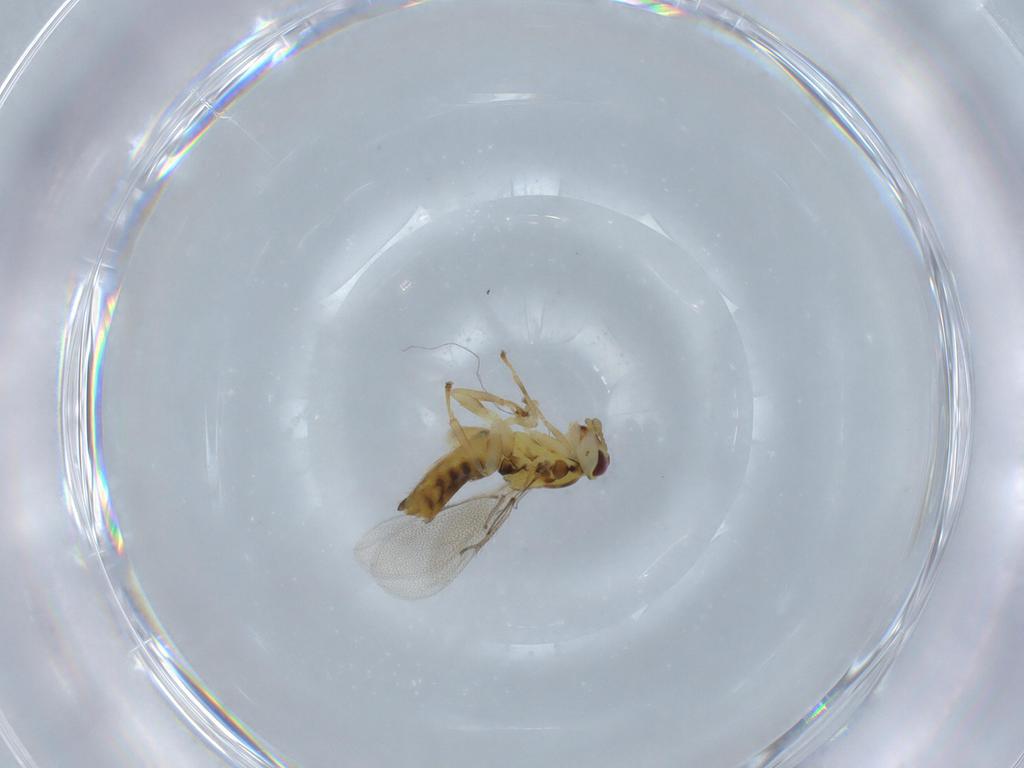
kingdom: Animalia
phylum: Arthropoda
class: Insecta
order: Hymenoptera
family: Eulophidae
